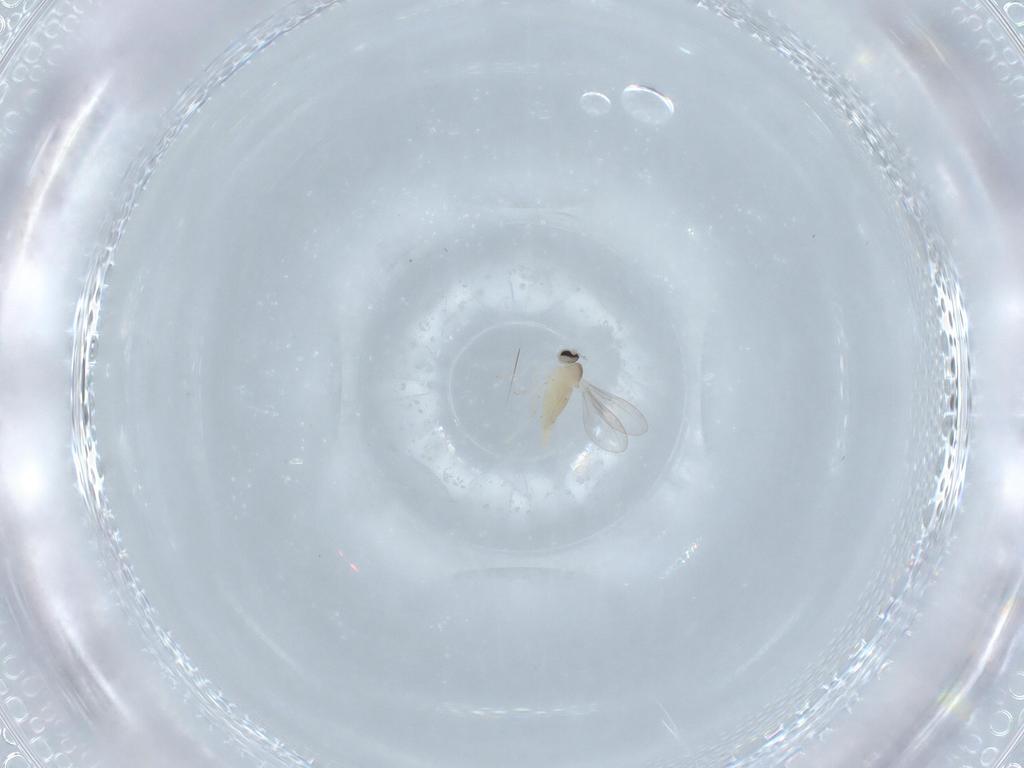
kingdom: Animalia
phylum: Arthropoda
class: Insecta
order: Diptera
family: Cecidomyiidae
